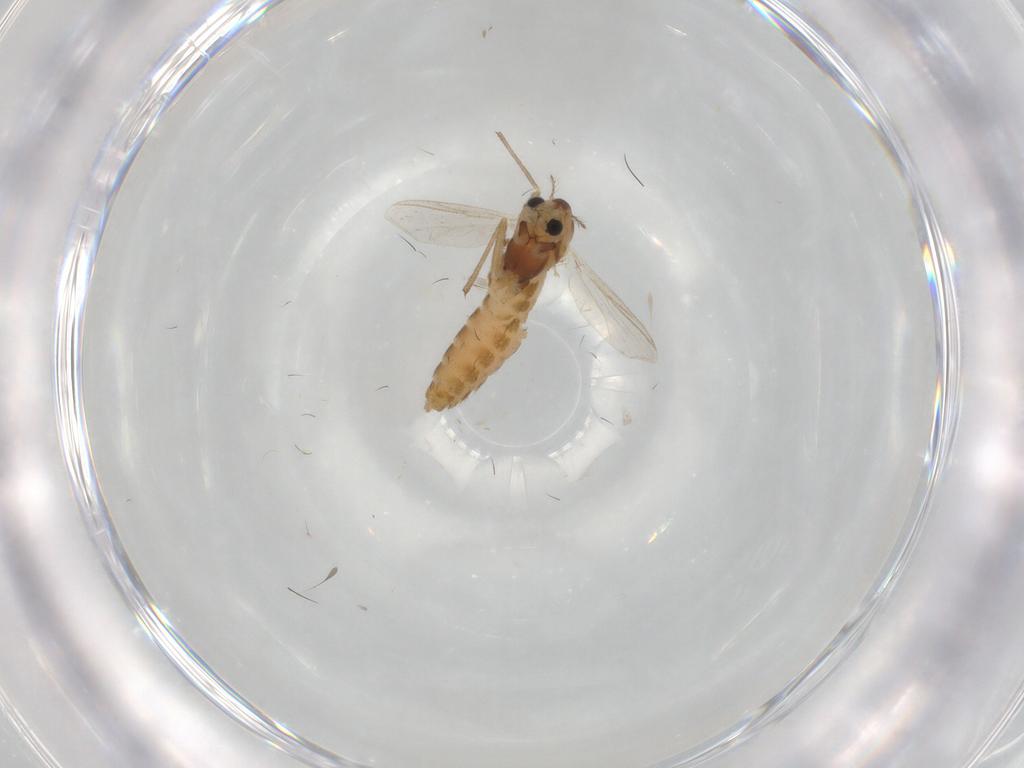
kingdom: Animalia
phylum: Arthropoda
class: Insecta
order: Diptera
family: Chironomidae
